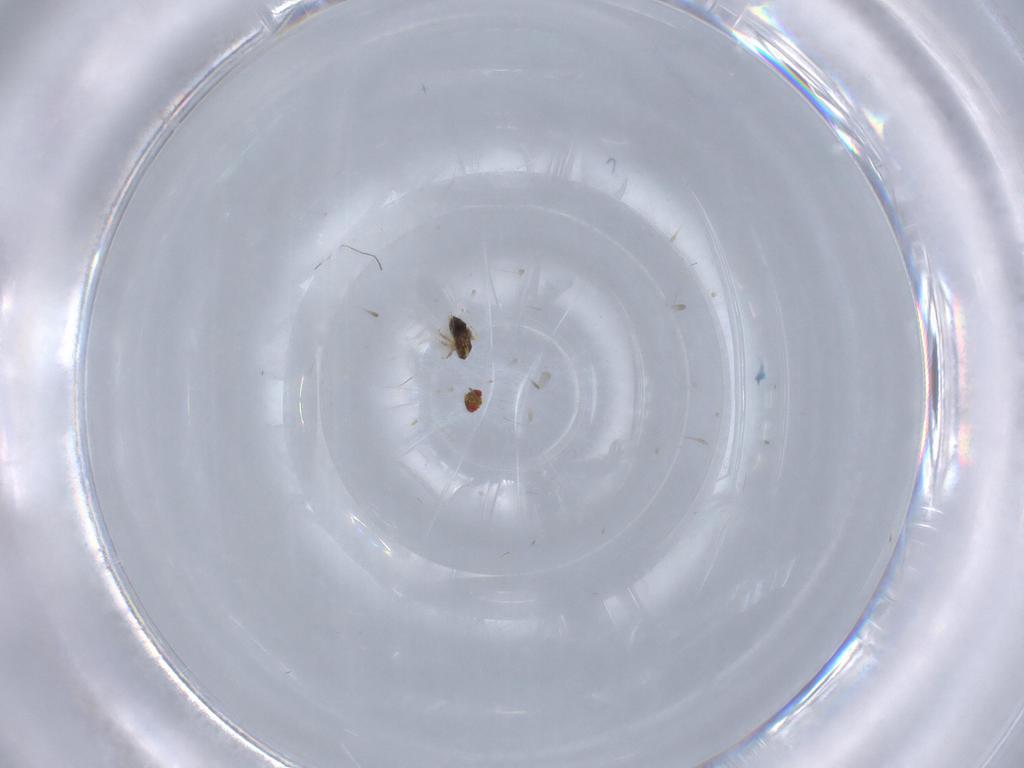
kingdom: Animalia
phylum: Arthropoda
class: Insecta
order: Hymenoptera
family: Trichogrammatidae
